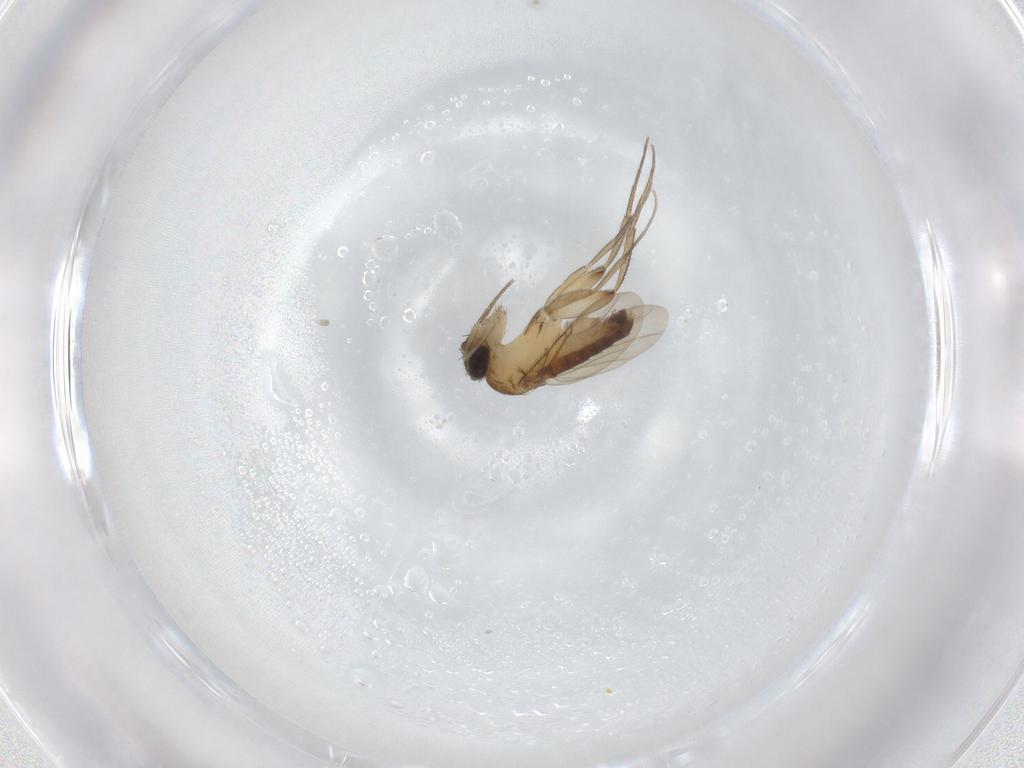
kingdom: Animalia
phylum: Arthropoda
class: Insecta
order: Diptera
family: Phoridae
